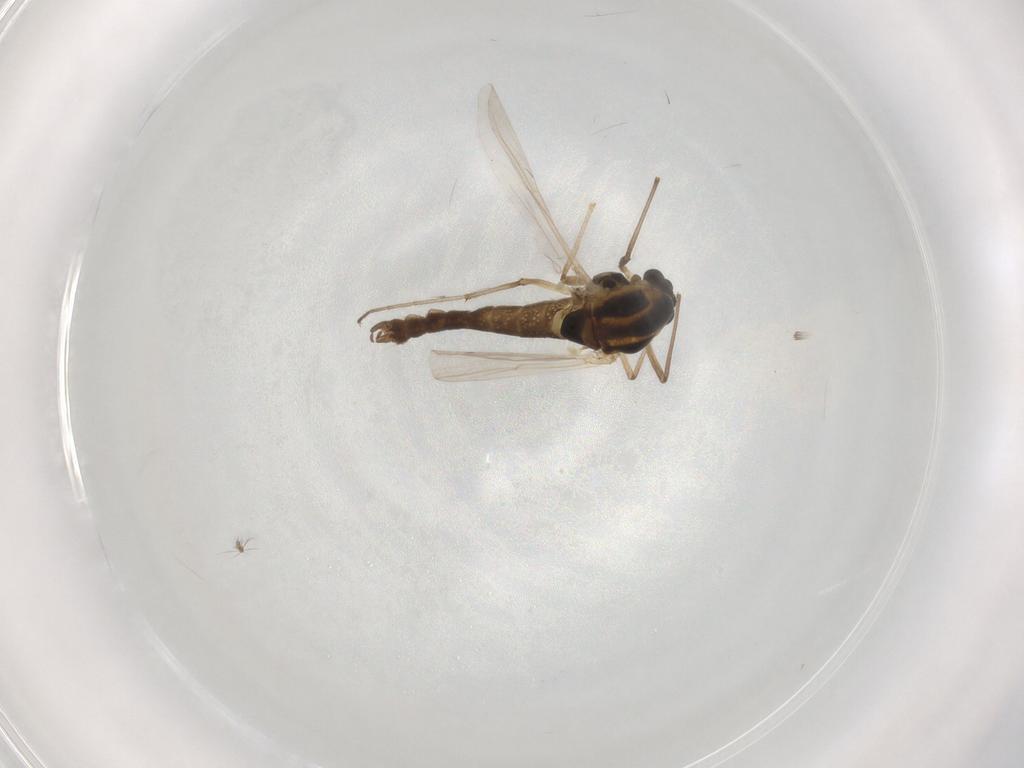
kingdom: Animalia
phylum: Arthropoda
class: Insecta
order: Diptera
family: Chironomidae
